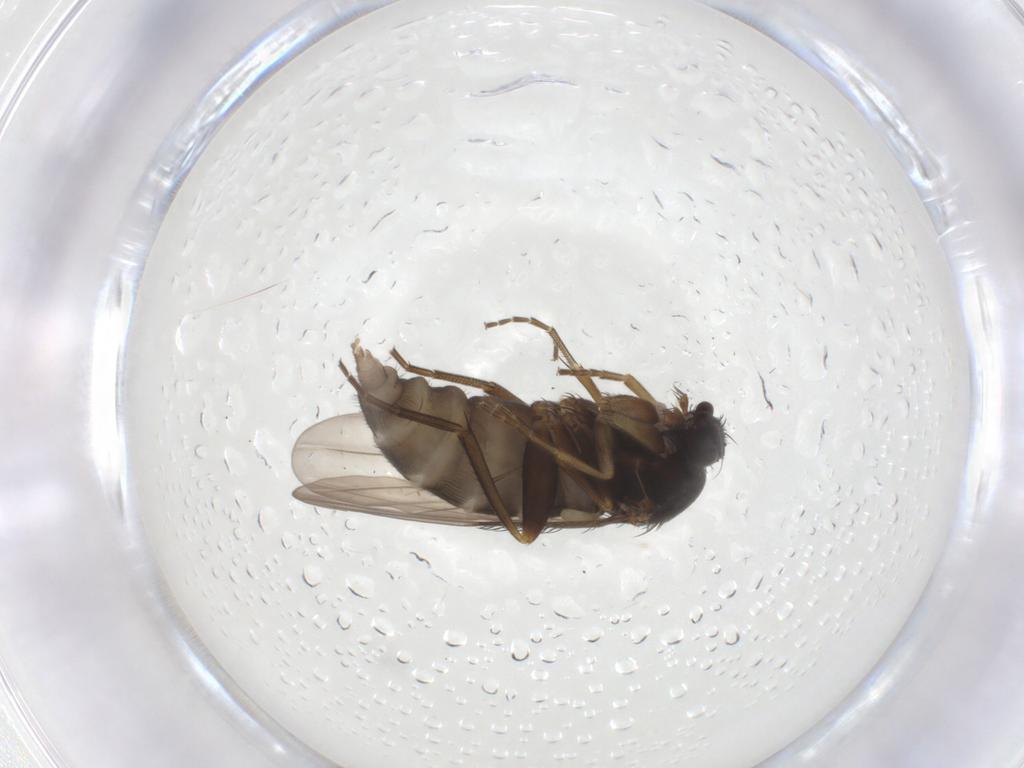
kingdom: Animalia
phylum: Arthropoda
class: Insecta
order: Diptera
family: Phoridae
